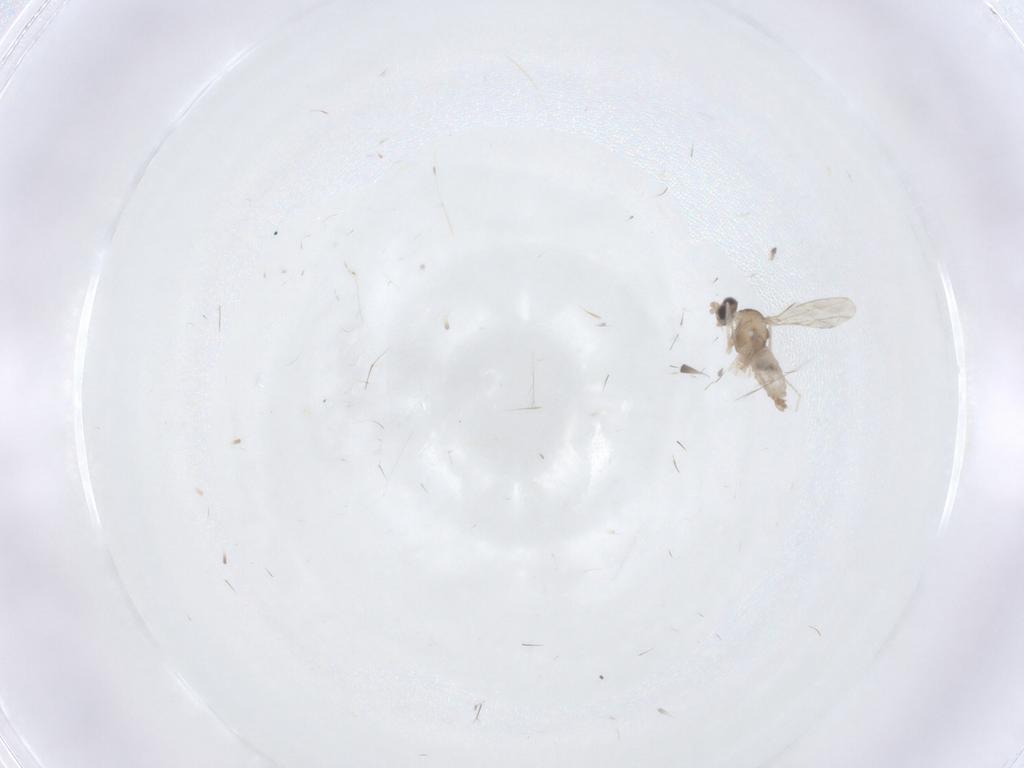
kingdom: Animalia
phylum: Arthropoda
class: Insecta
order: Diptera
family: Cecidomyiidae
